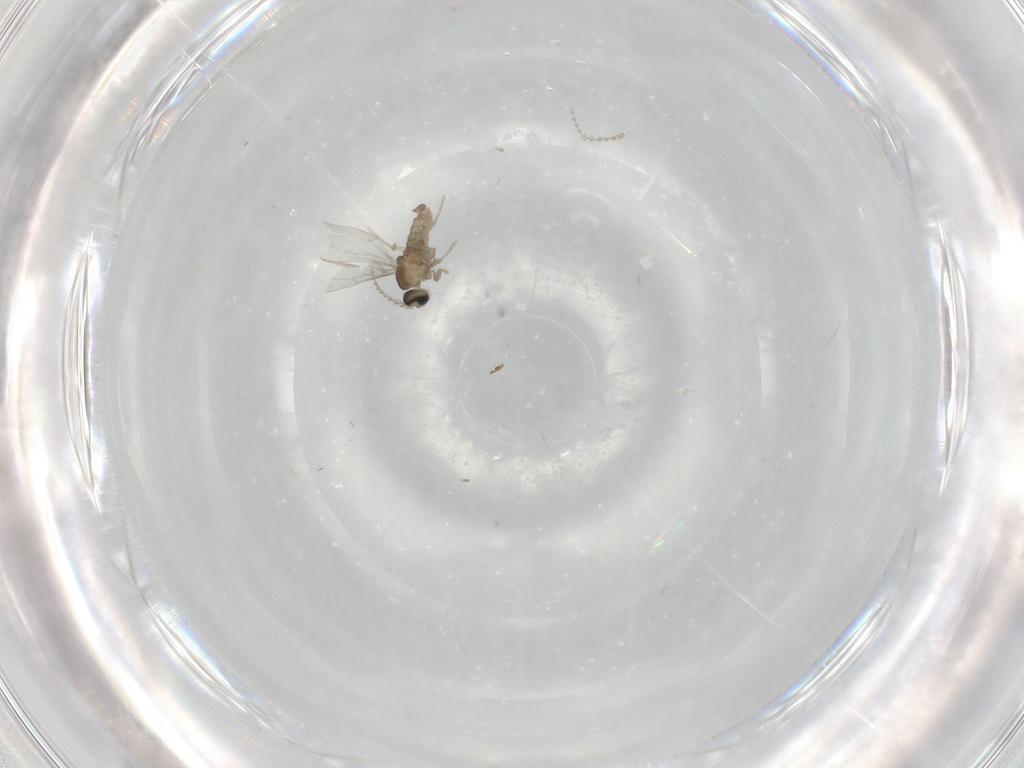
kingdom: Animalia
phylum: Arthropoda
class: Insecta
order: Diptera
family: Cecidomyiidae
